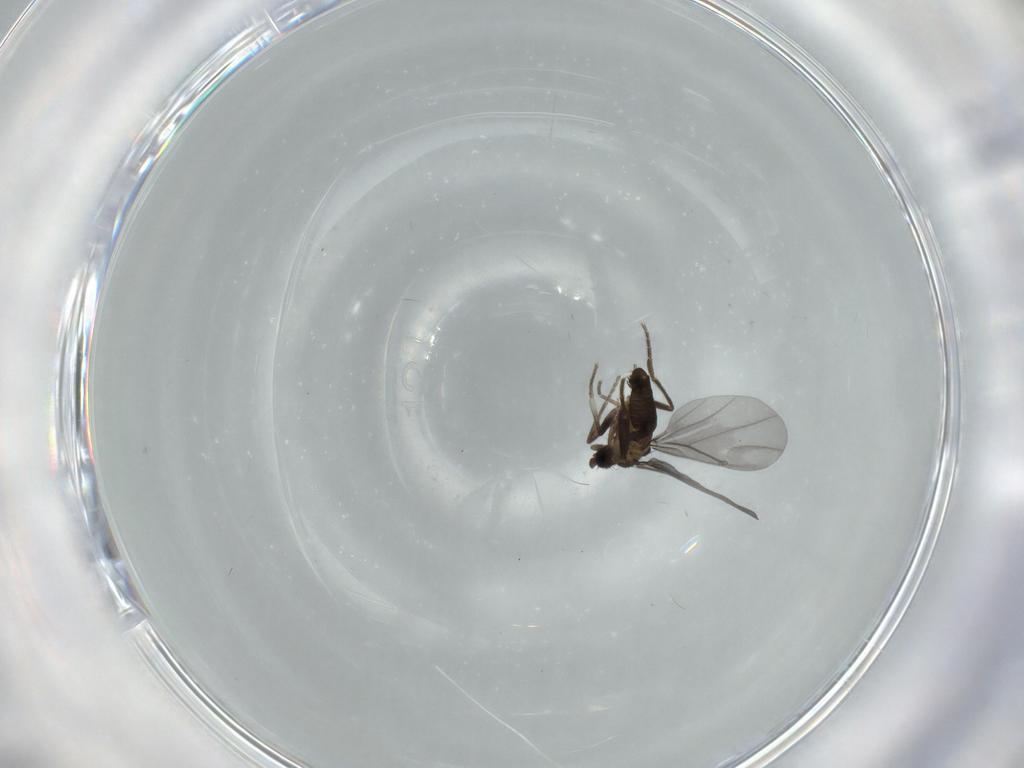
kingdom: Animalia
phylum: Arthropoda
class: Insecta
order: Diptera
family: Phoridae
